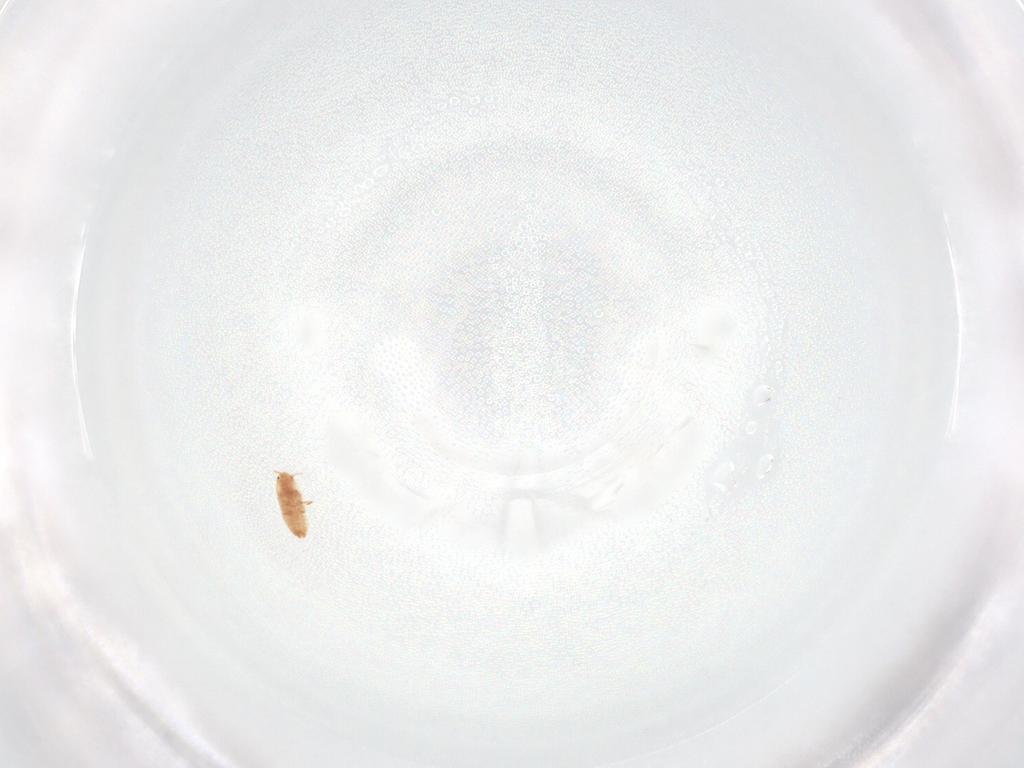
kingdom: Animalia
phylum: Arthropoda
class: Insecta
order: Hemiptera
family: Aphididae
